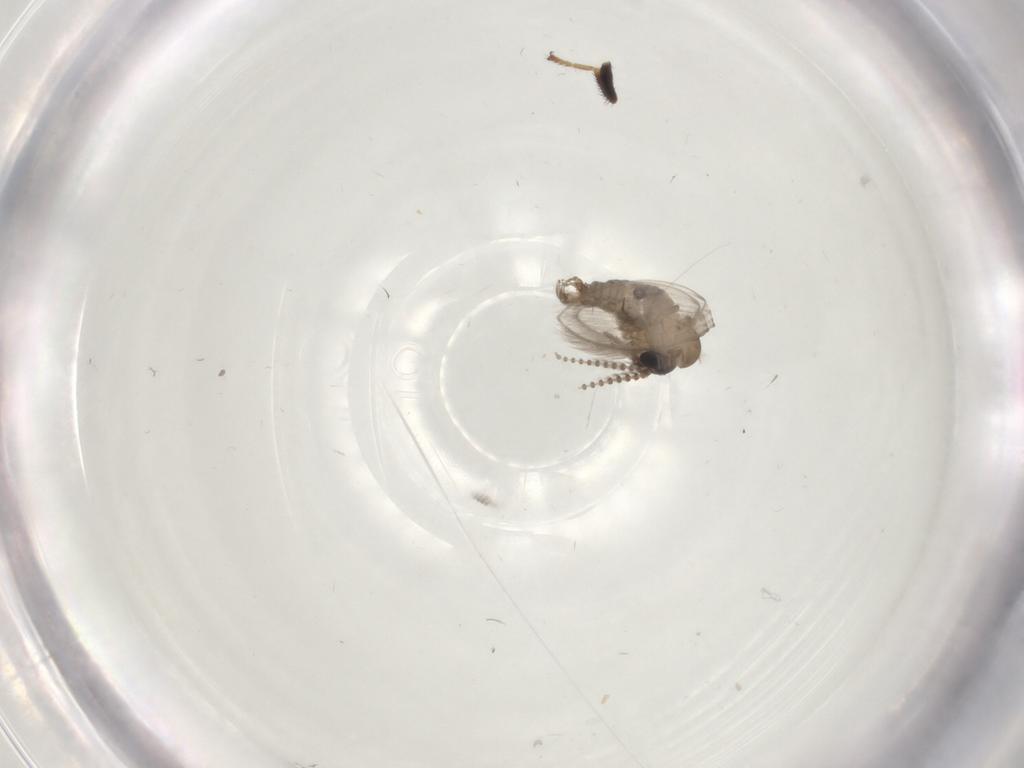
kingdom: Animalia
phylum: Arthropoda
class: Insecta
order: Diptera
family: Psychodidae
